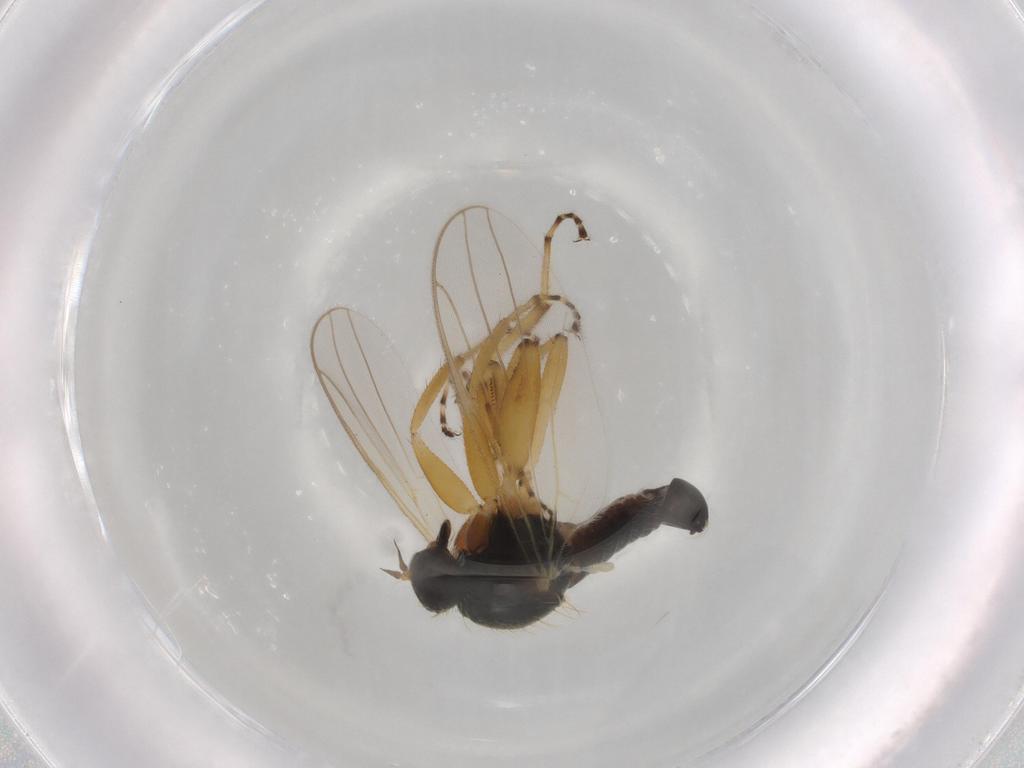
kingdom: Animalia
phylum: Arthropoda
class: Insecta
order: Diptera
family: Hybotidae
